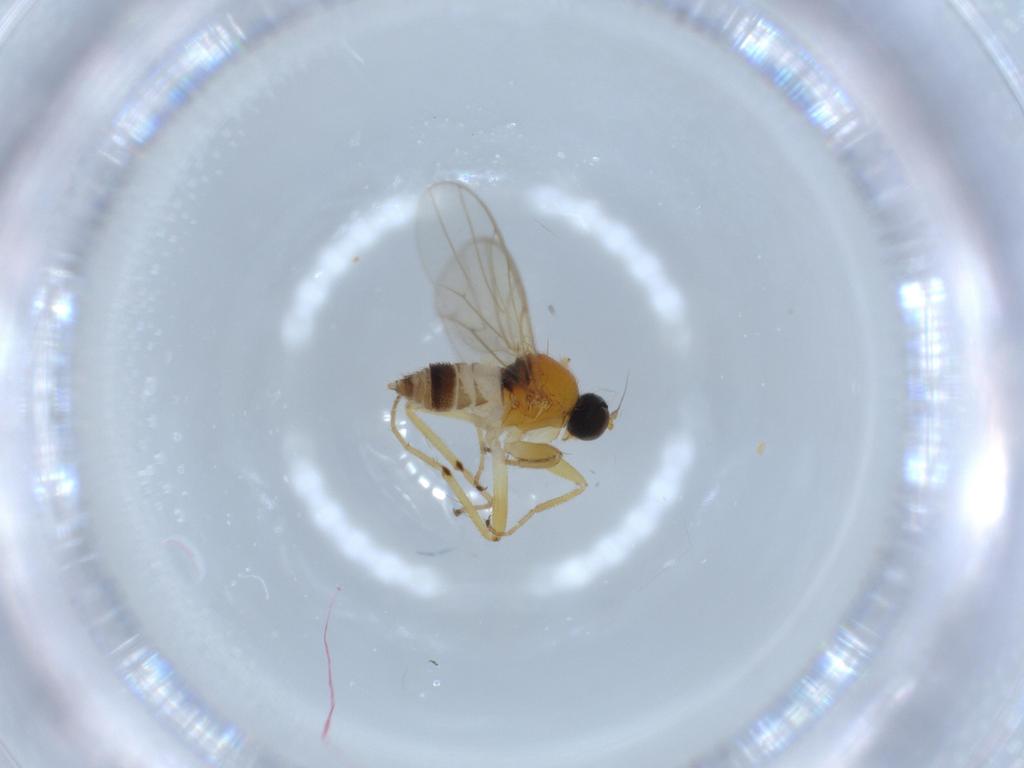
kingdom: Animalia
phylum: Arthropoda
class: Insecta
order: Diptera
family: Hybotidae
